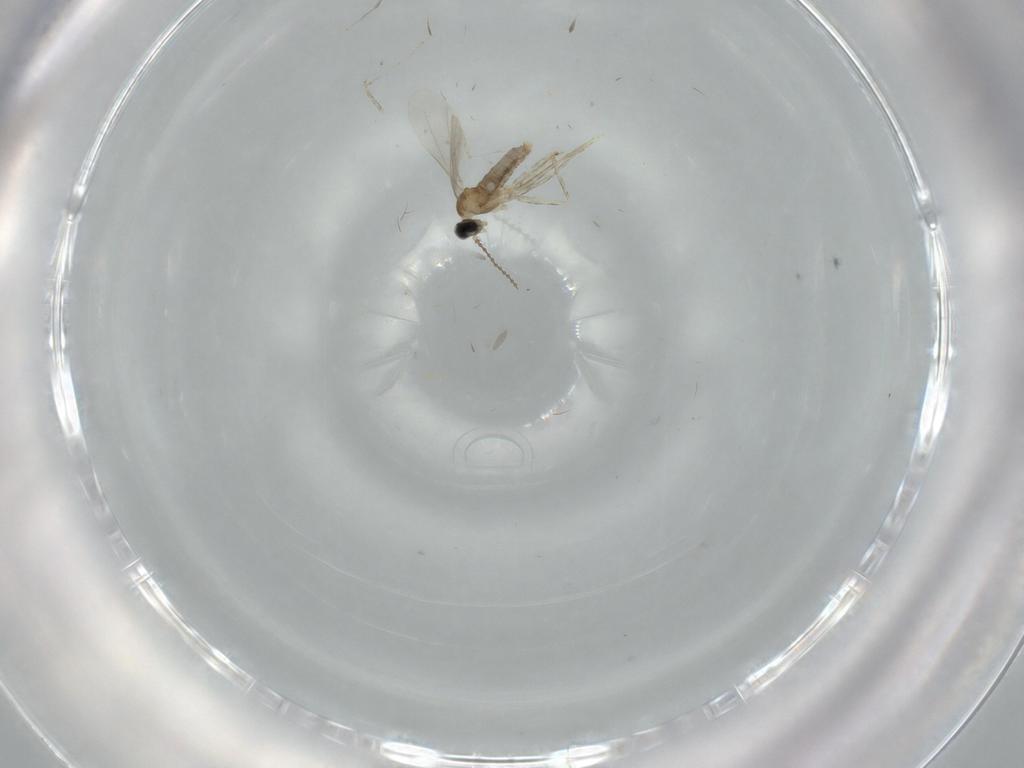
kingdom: Animalia
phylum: Arthropoda
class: Insecta
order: Diptera
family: Cecidomyiidae
